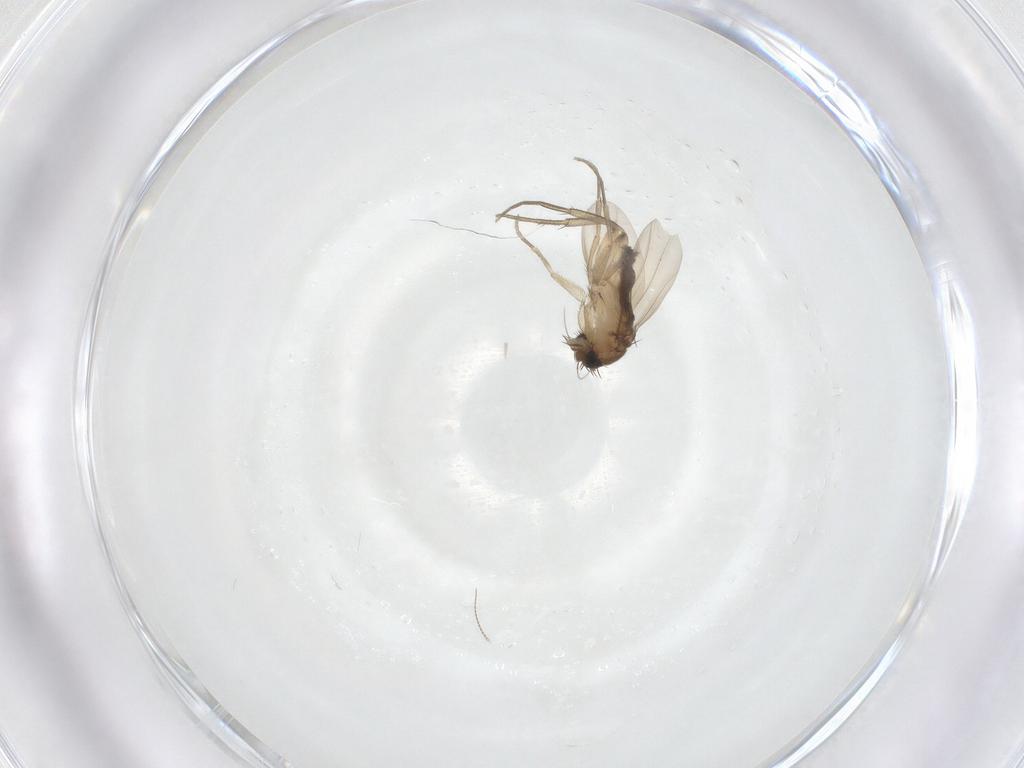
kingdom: Animalia
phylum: Arthropoda
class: Insecta
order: Diptera
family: Phoridae
